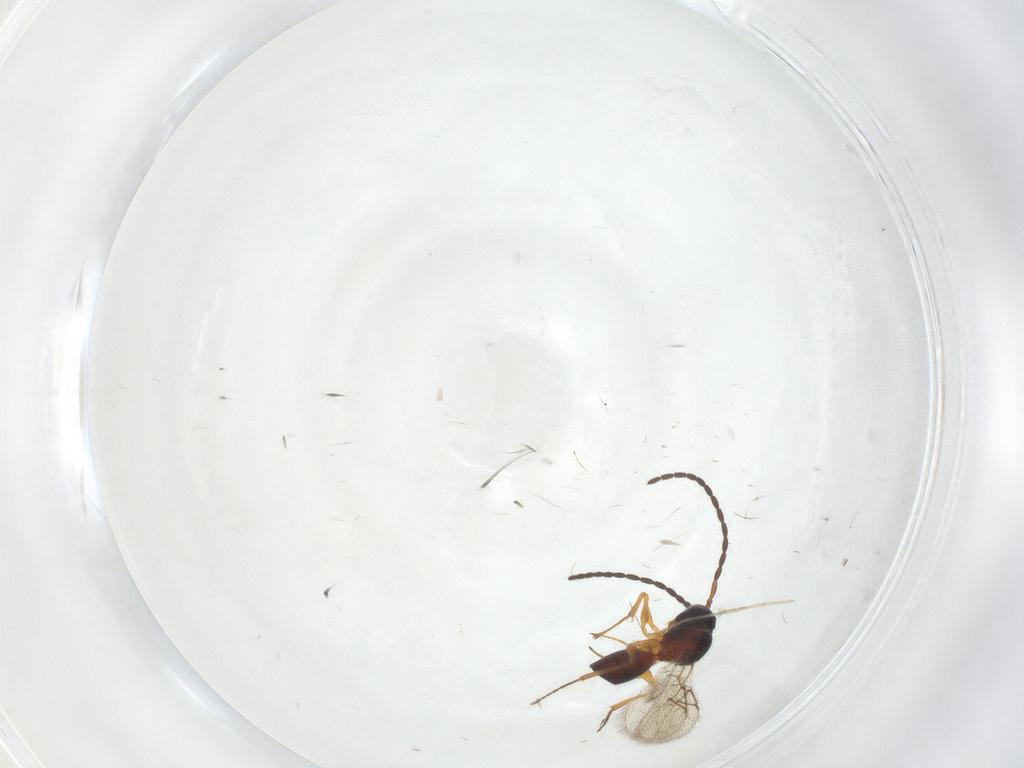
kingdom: Animalia
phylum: Arthropoda
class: Insecta
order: Hymenoptera
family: Figitidae
